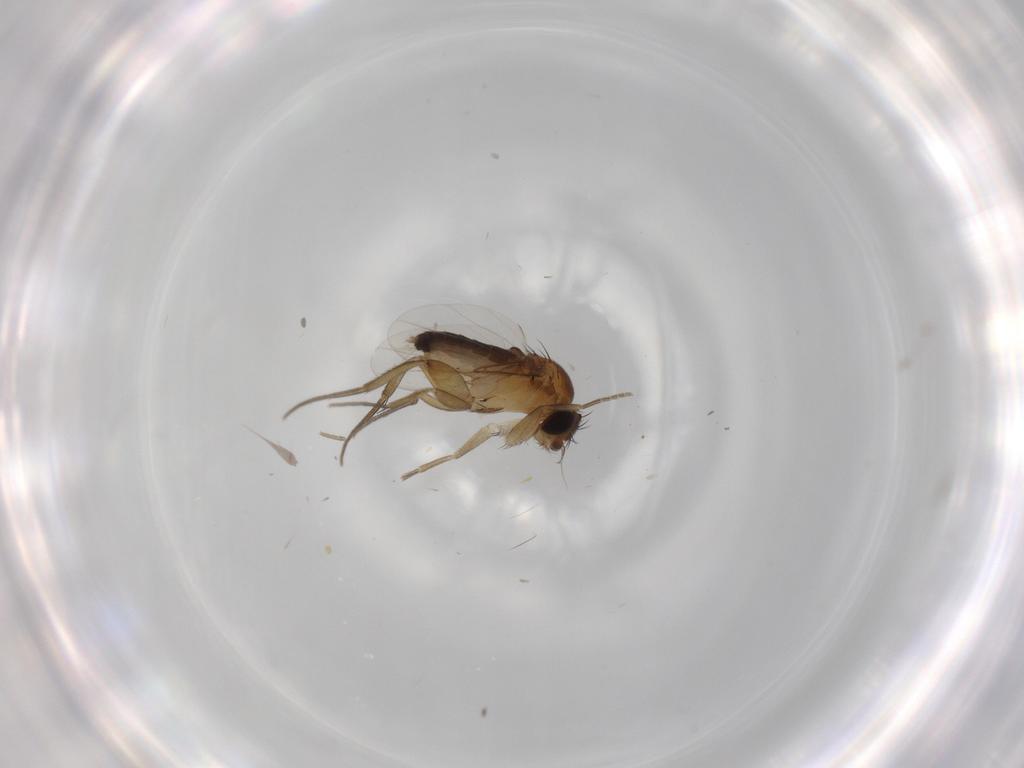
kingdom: Animalia
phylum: Arthropoda
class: Insecta
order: Diptera
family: Phoridae
